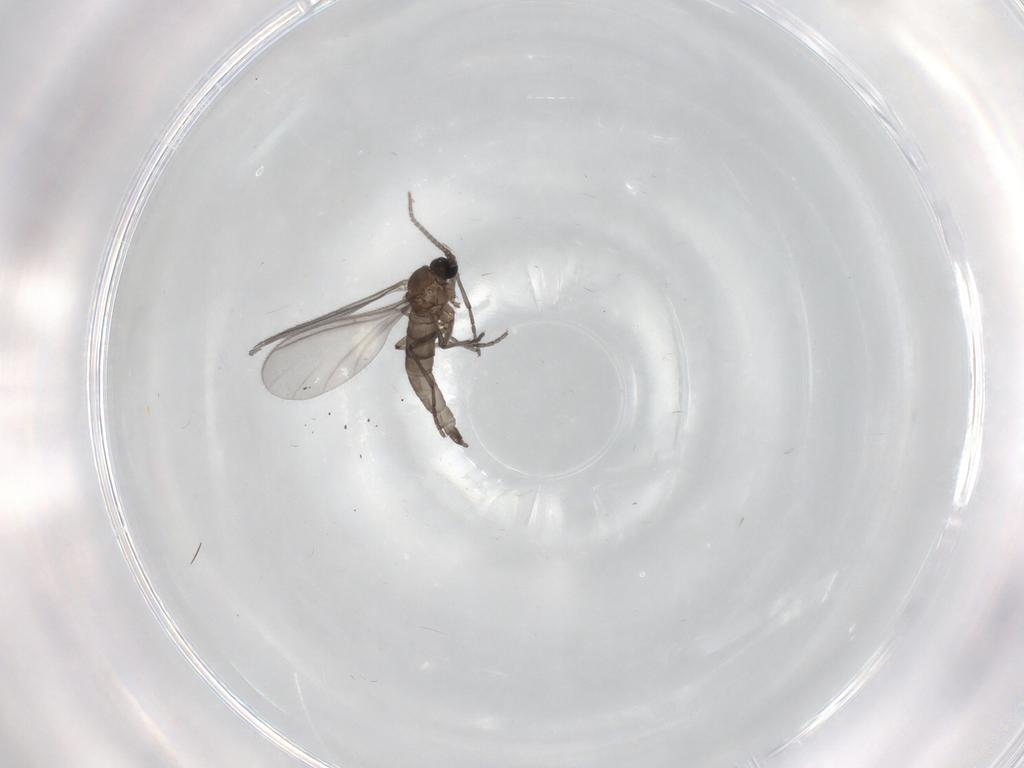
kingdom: Animalia
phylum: Arthropoda
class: Insecta
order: Diptera
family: Sciaridae
